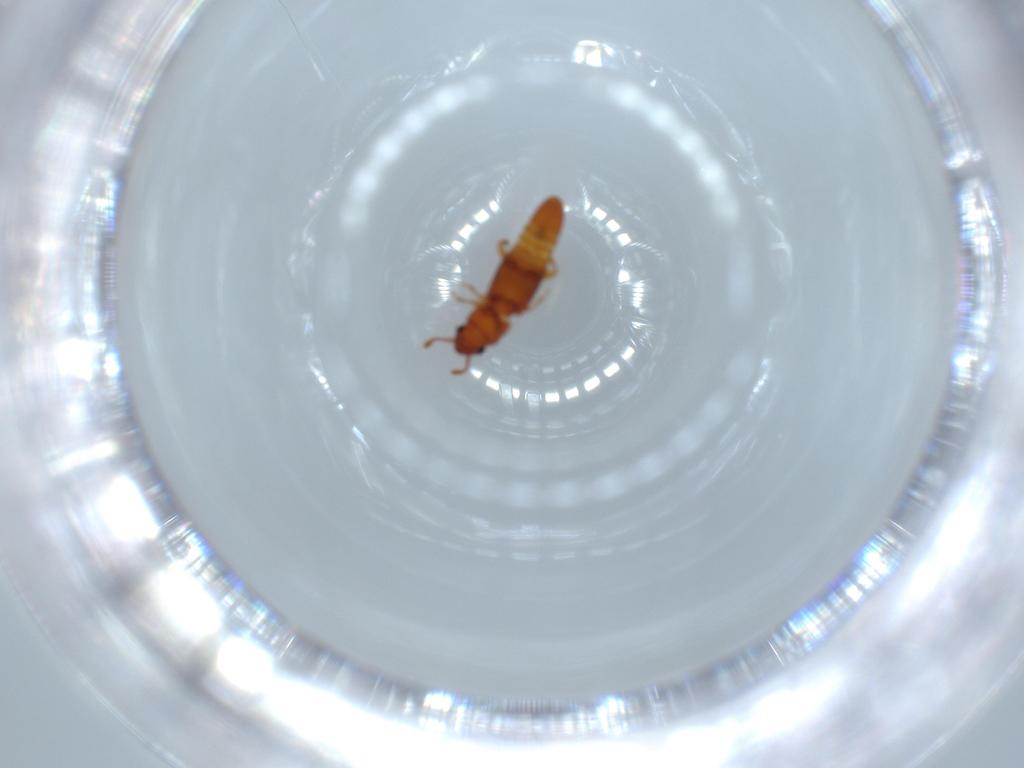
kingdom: Animalia
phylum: Arthropoda
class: Insecta
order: Coleoptera
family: Smicripidae
